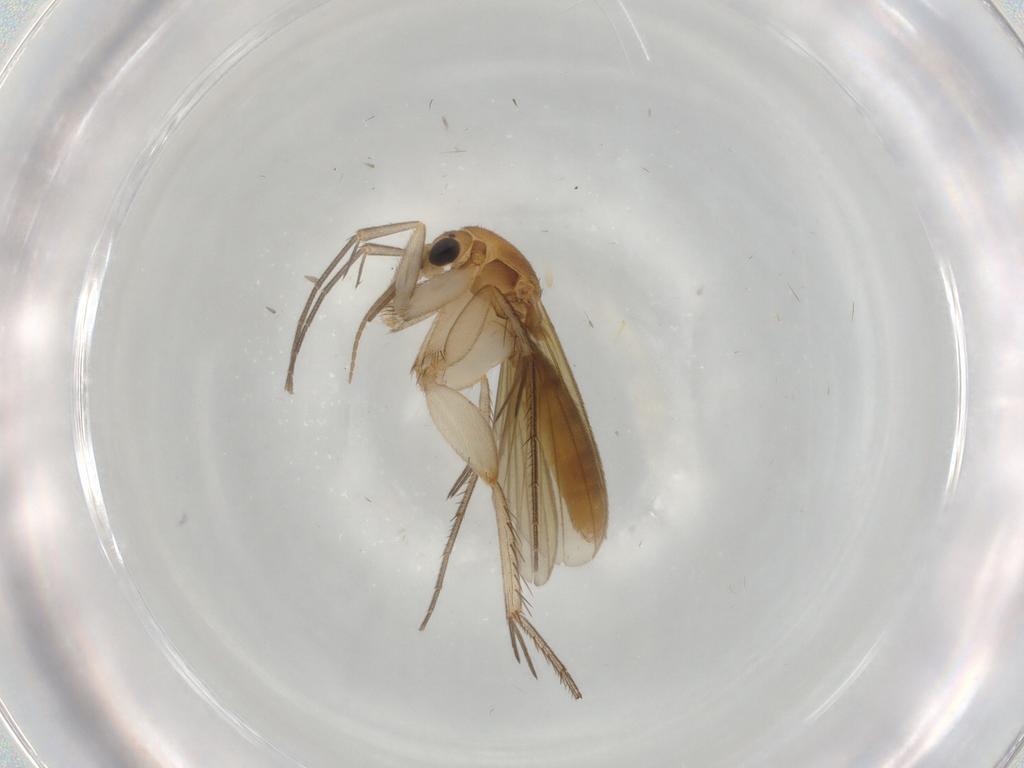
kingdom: Animalia
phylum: Arthropoda
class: Insecta
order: Diptera
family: Mycetophilidae
